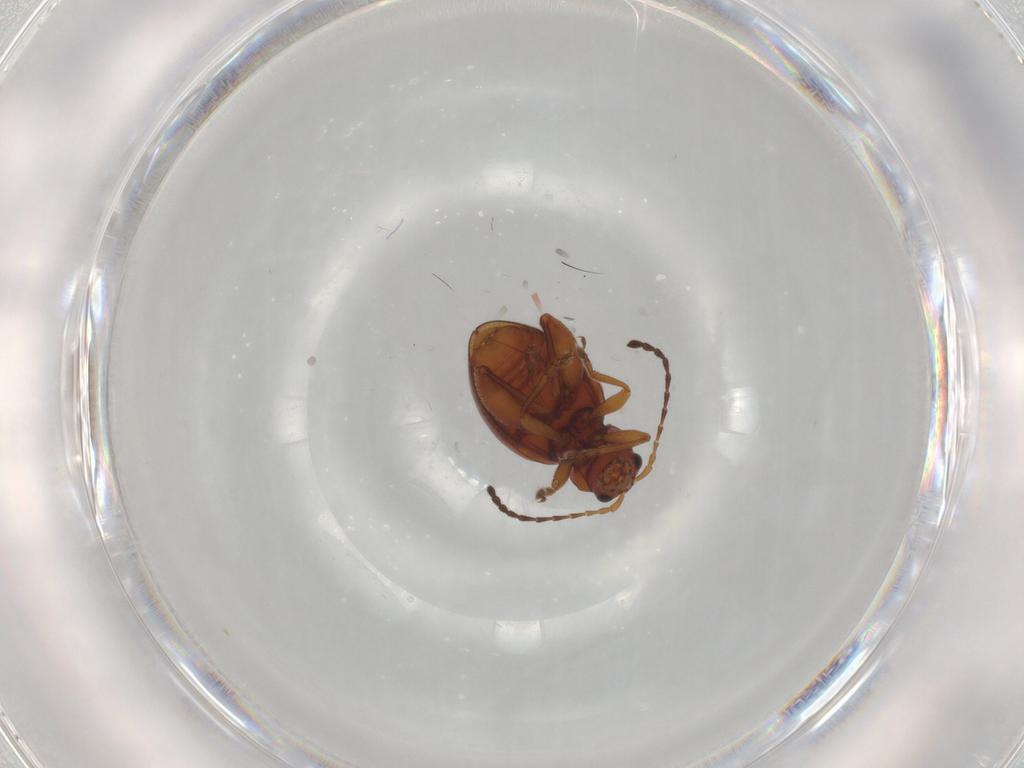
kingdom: Animalia
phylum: Arthropoda
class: Insecta
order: Coleoptera
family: Chrysomelidae
